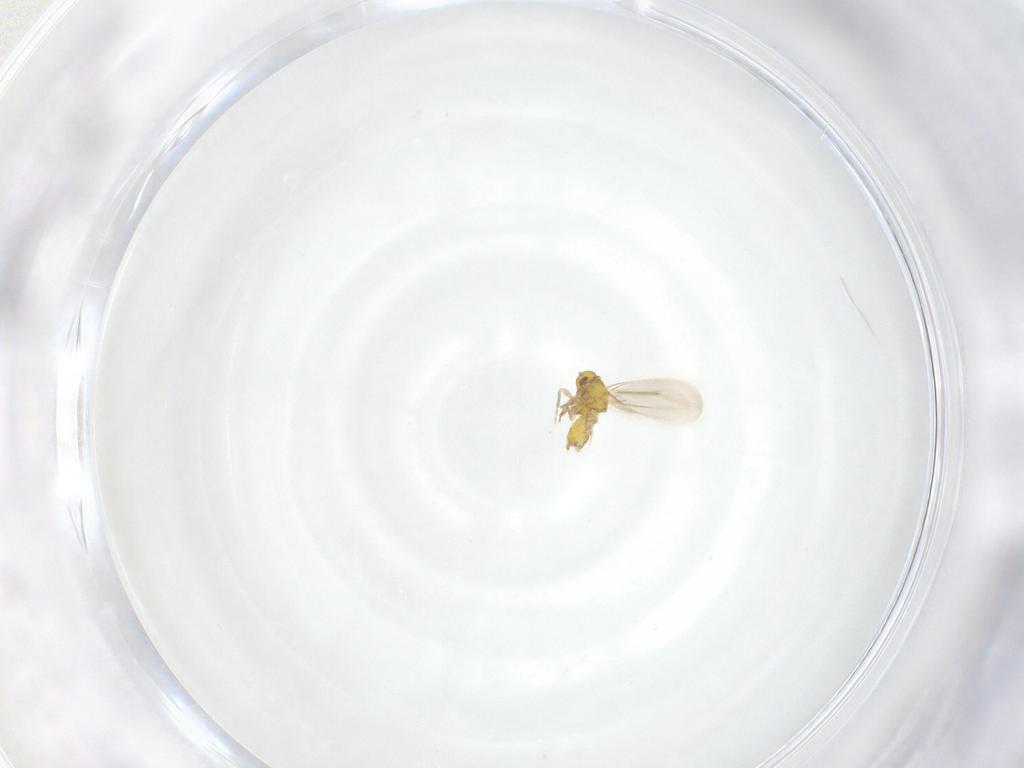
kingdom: Animalia
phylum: Arthropoda
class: Insecta
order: Hemiptera
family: Aleyrodidae
